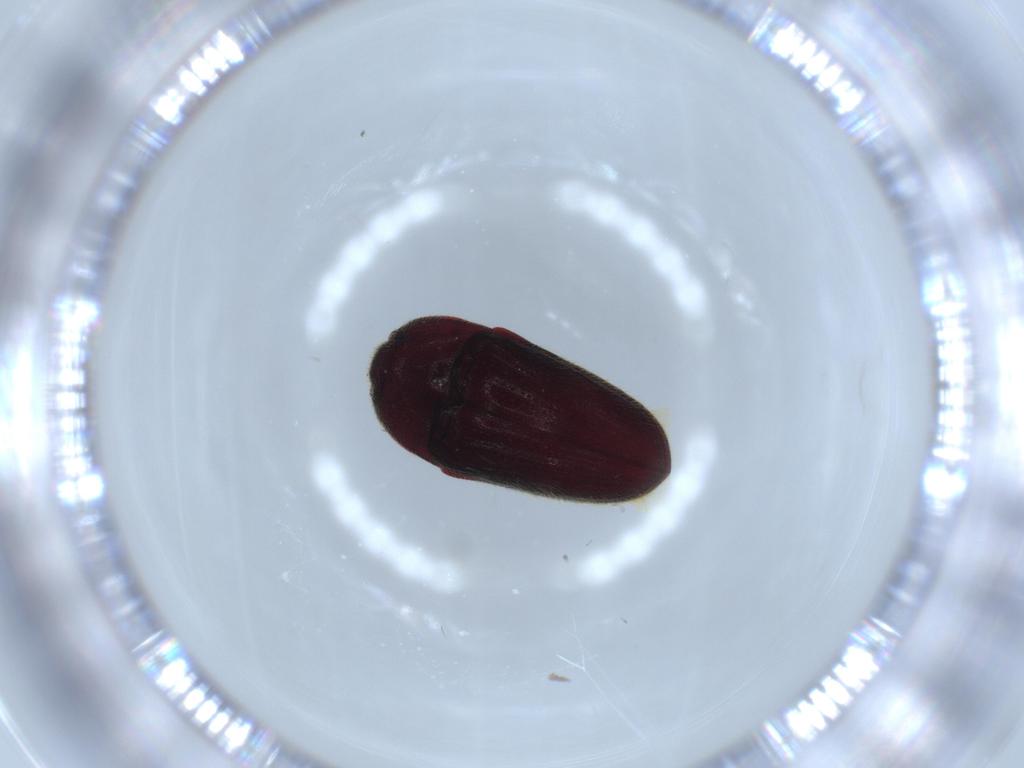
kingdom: Animalia
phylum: Arthropoda
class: Insecta
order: Coleoptera
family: Throscidae
